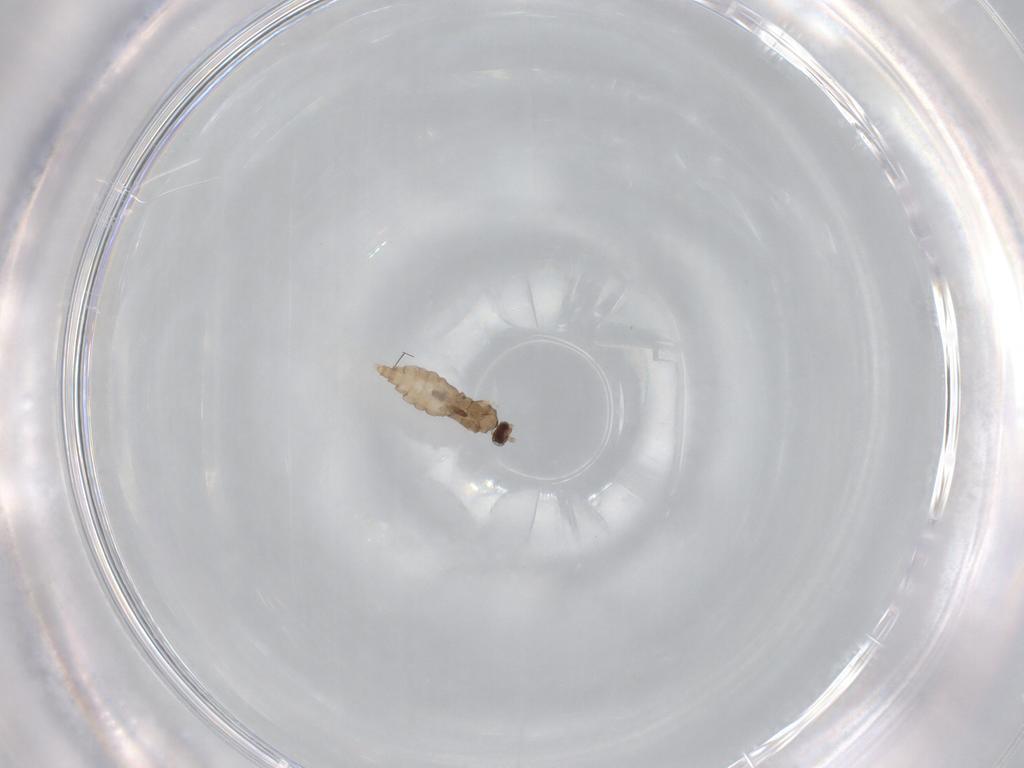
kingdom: Animalia
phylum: Arthropoda
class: Insecta
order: Diptera
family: Cecidomyiidae
